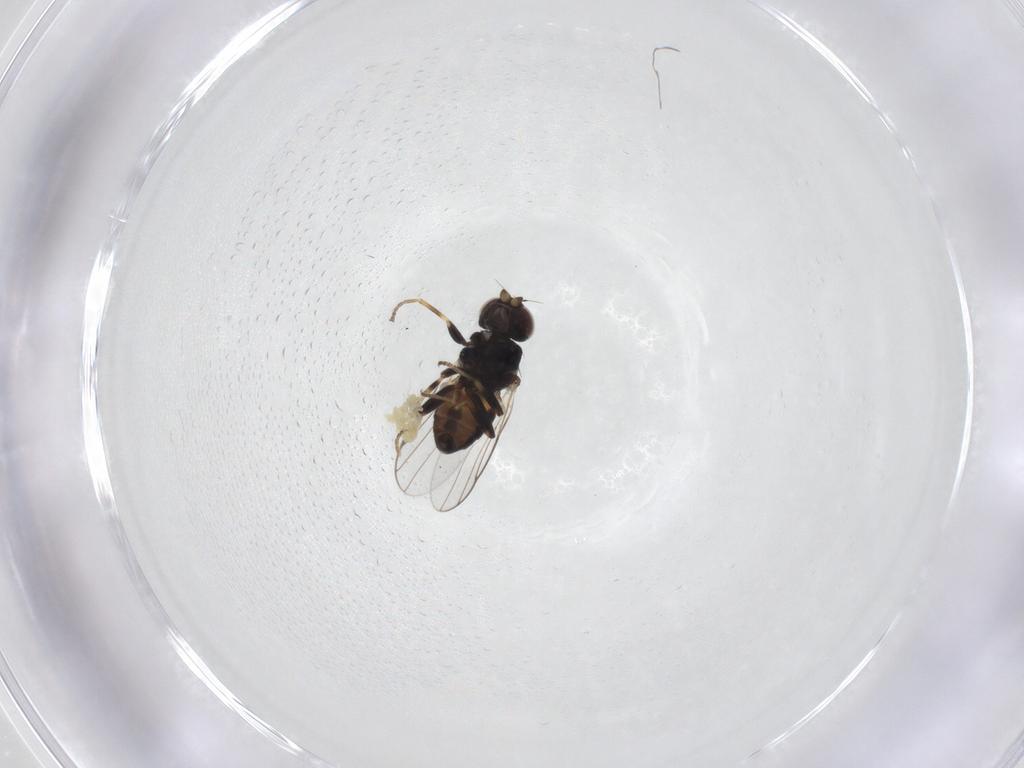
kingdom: Animalia
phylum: Arthropoda
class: Insecta
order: Diptera
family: Chloropidae
